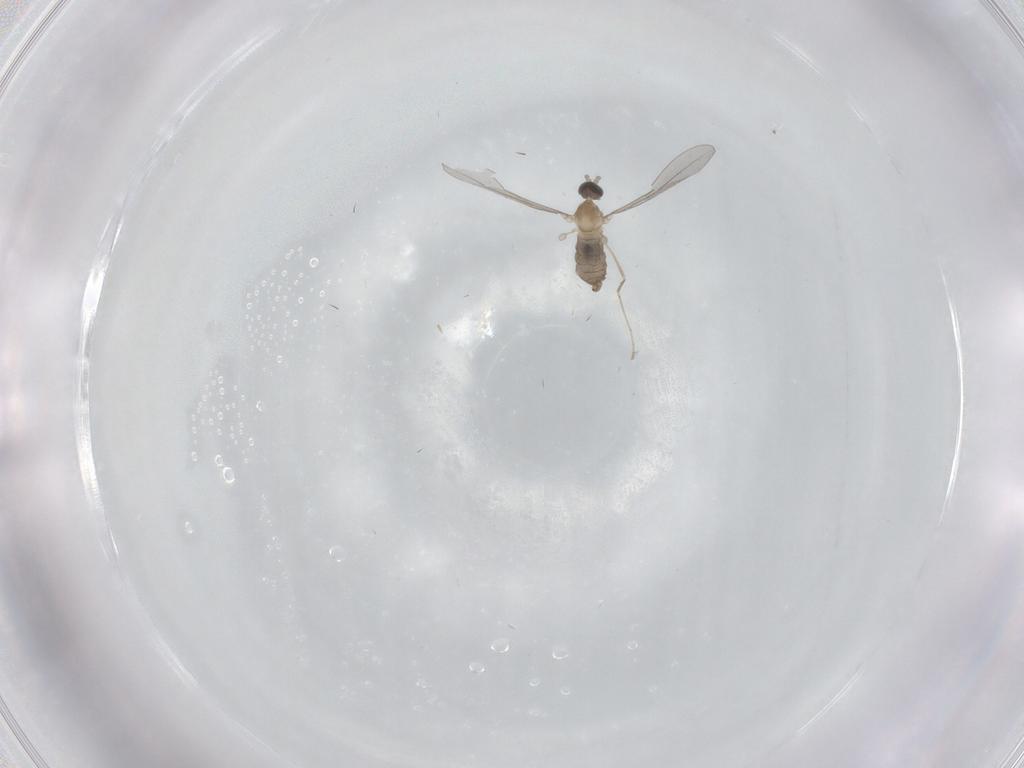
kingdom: Animalia
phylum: Arthropoda
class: Insecta
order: Diptera
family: Cecidomyiidae
